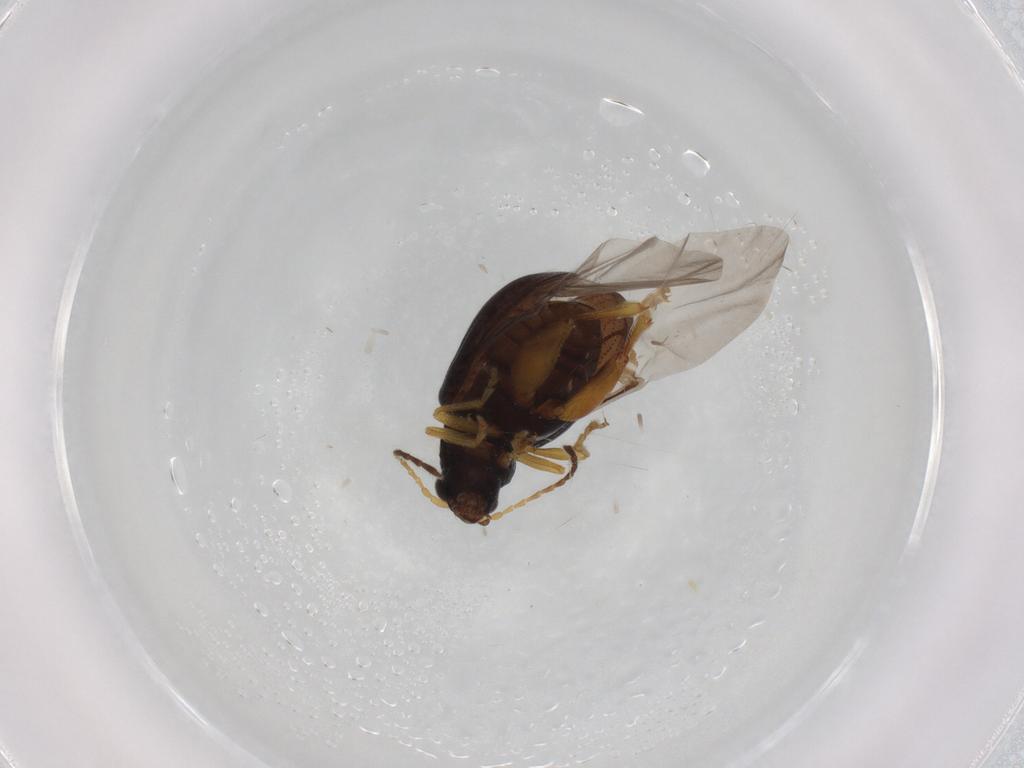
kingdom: Animalia
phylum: Arthropoda
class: Insecta
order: Coleoptera
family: Chrysomelidae
